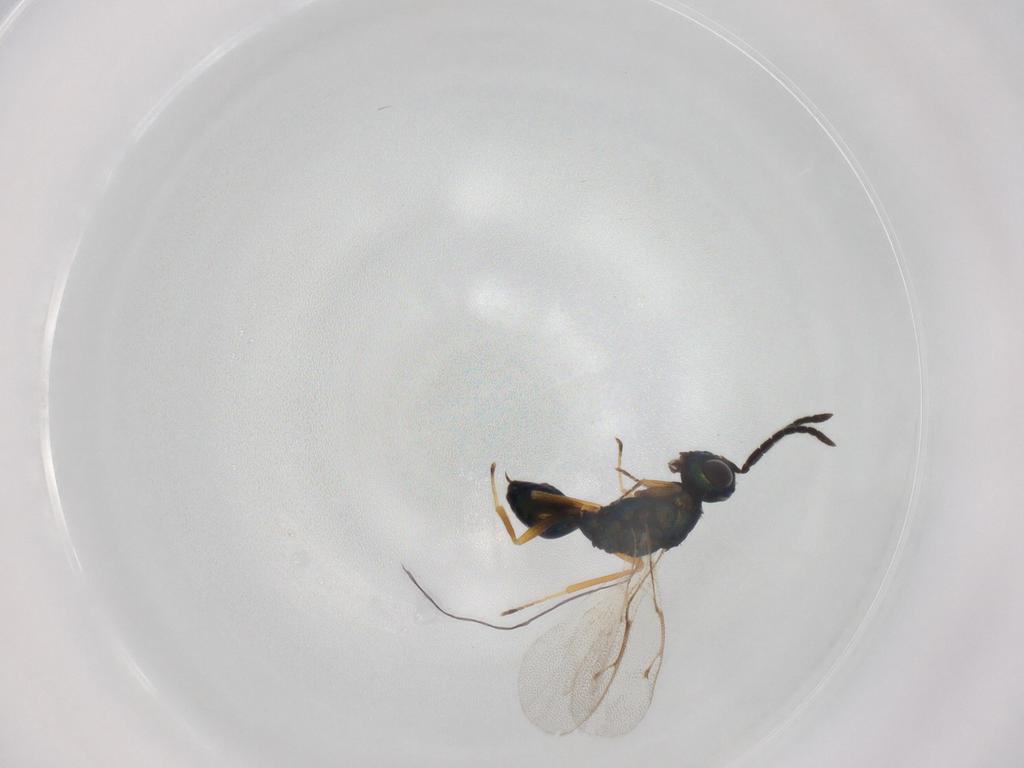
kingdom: Animalia
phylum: Arthropoda
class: Insecta
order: Hymenoptera
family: Pteromalidae
